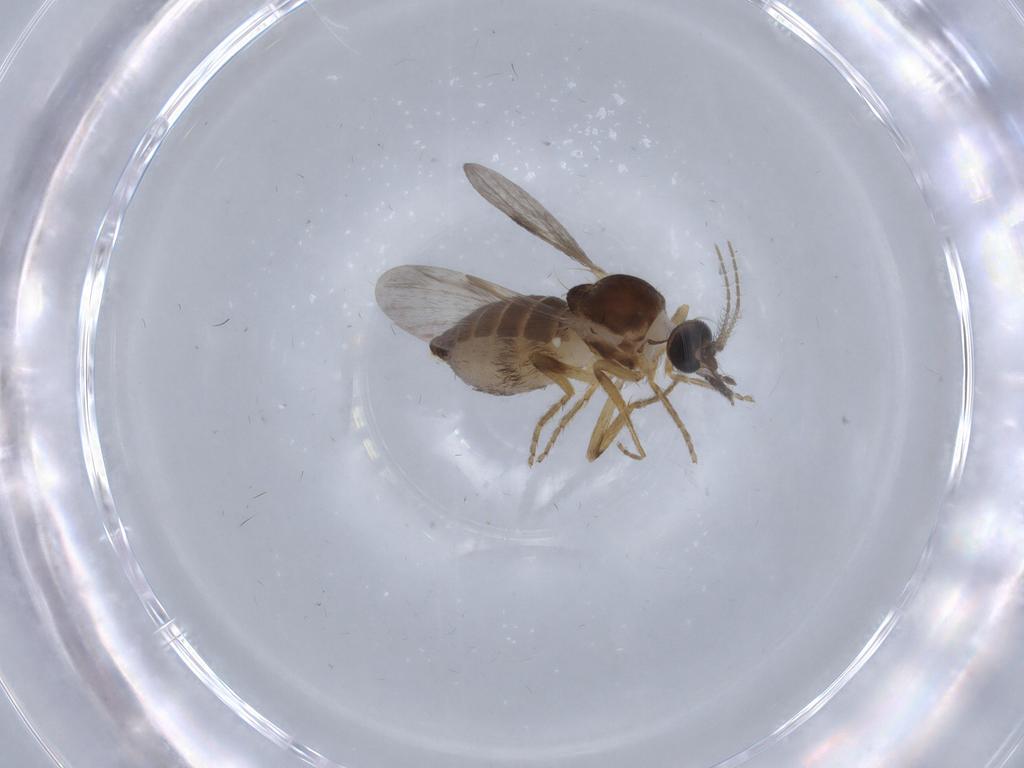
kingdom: Animalia
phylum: Arthropoda
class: Insecta
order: Diptera
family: Ceratopogonidae
